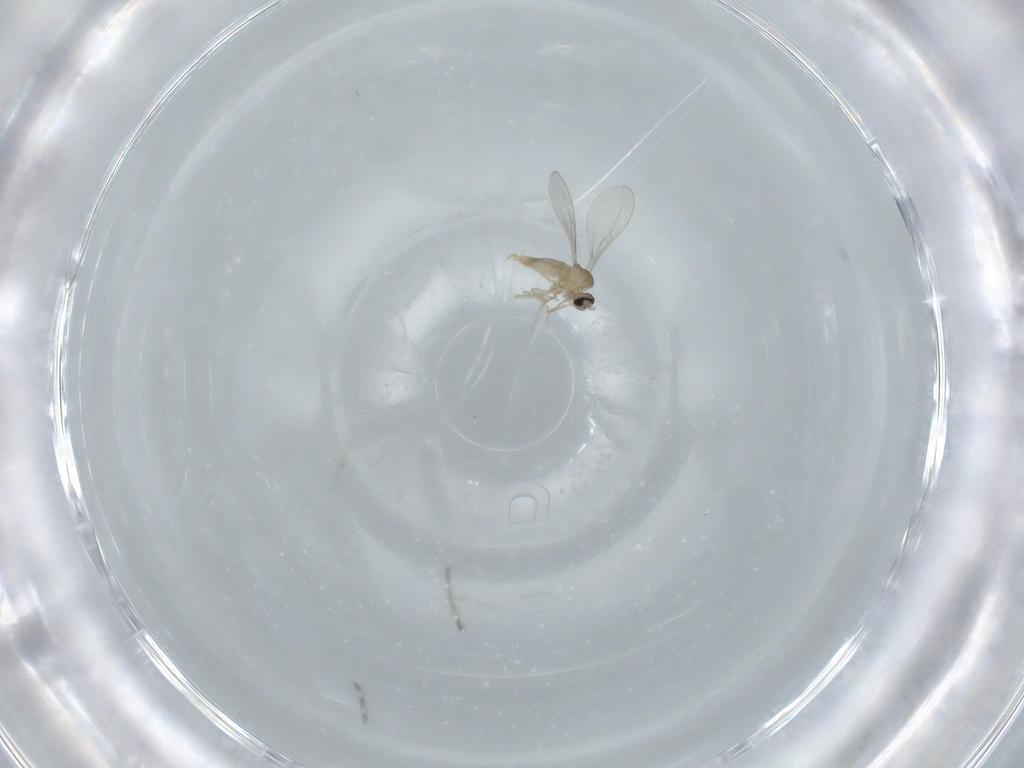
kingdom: Animalia
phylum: Arthropoda
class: Insecta
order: Diptera
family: Cecidomyiidae
